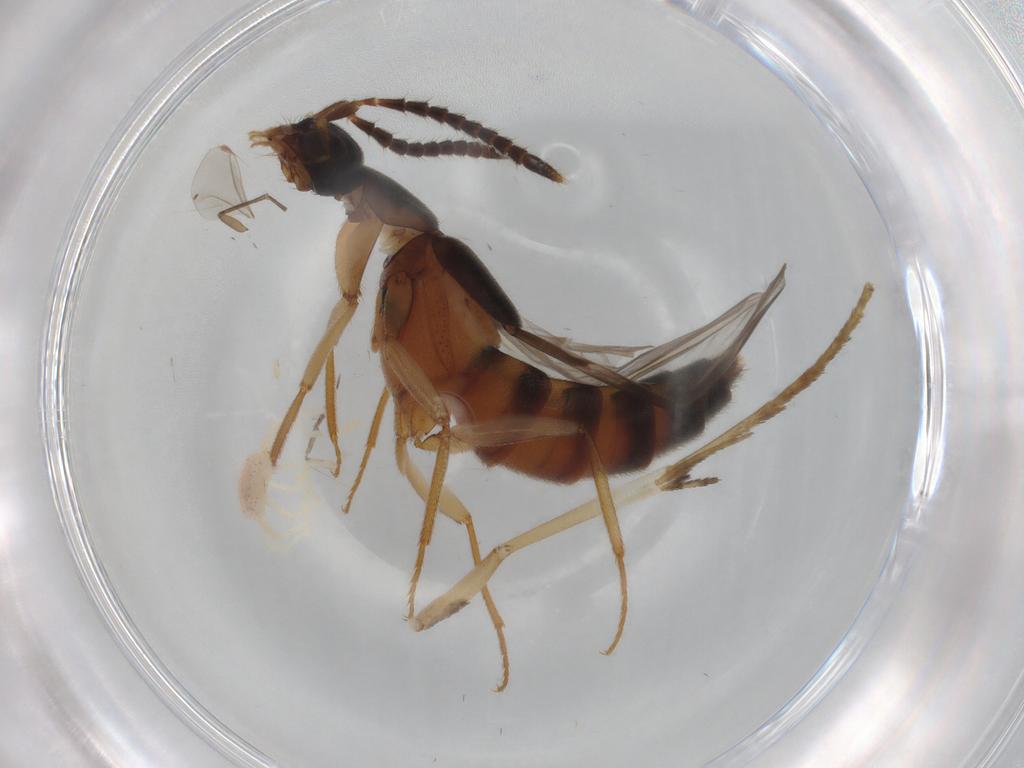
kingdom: Animalia
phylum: Arthropoda
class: Insecta
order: Coleoptera
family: Staphylinidae
